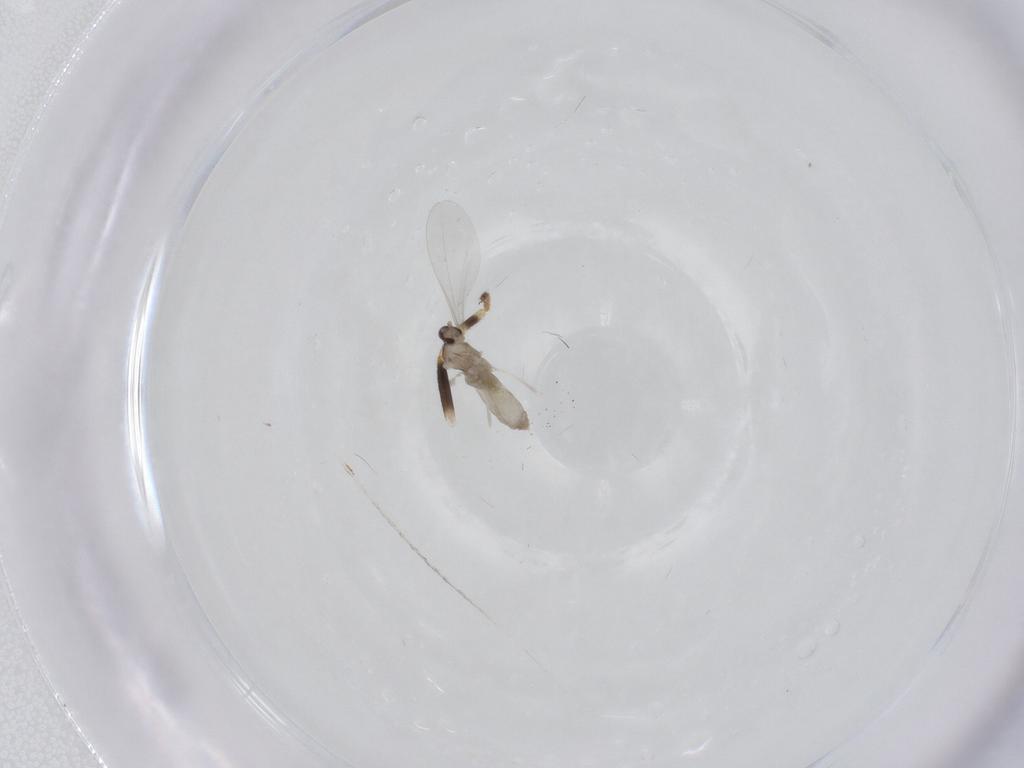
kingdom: Animalia
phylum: Arthropoda
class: Insecta
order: Diptera
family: Cecidomyiidae
